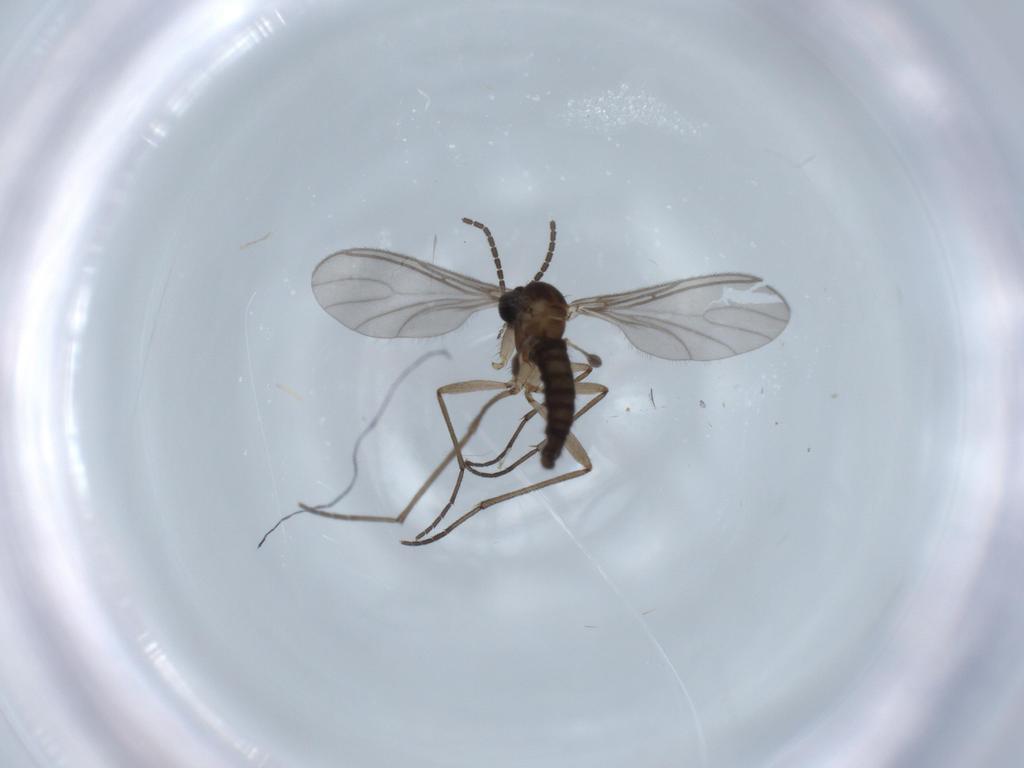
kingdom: Animalia
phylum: Arthropoda
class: Insecta
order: Diptera
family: Sciaridae
